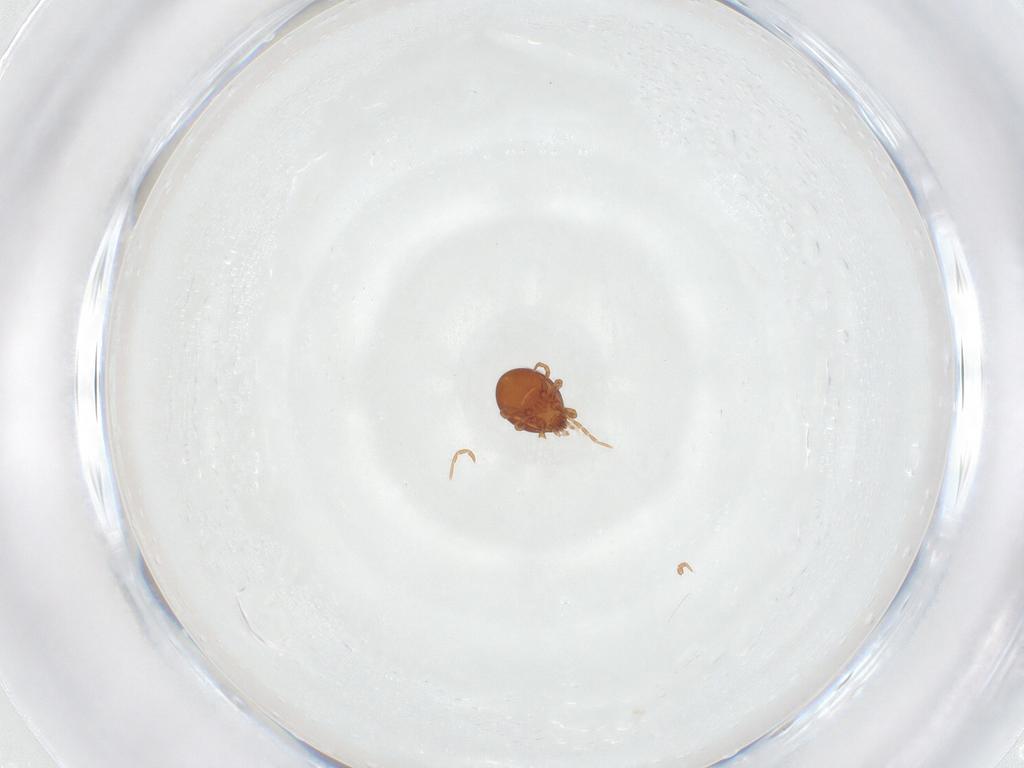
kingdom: Animalia
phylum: Arthropoda
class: Arachnida
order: Mesostigmata
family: Parasitidae
